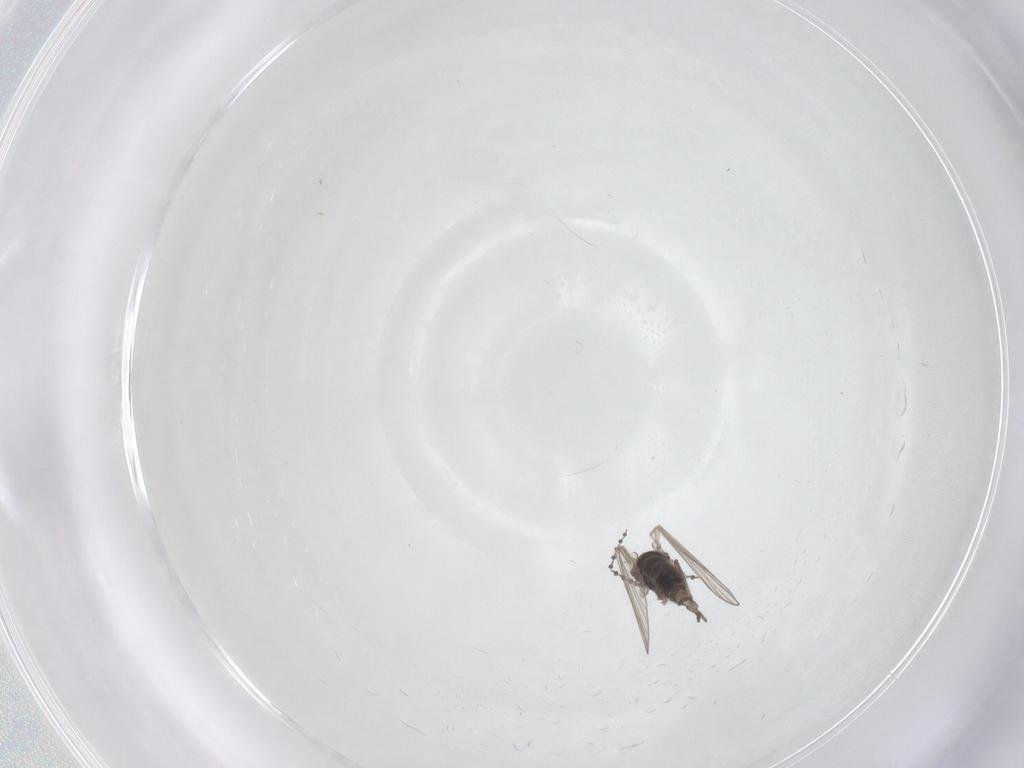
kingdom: Animalia
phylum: Arthropoda
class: Insecta
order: Diptera
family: Psychodidae
